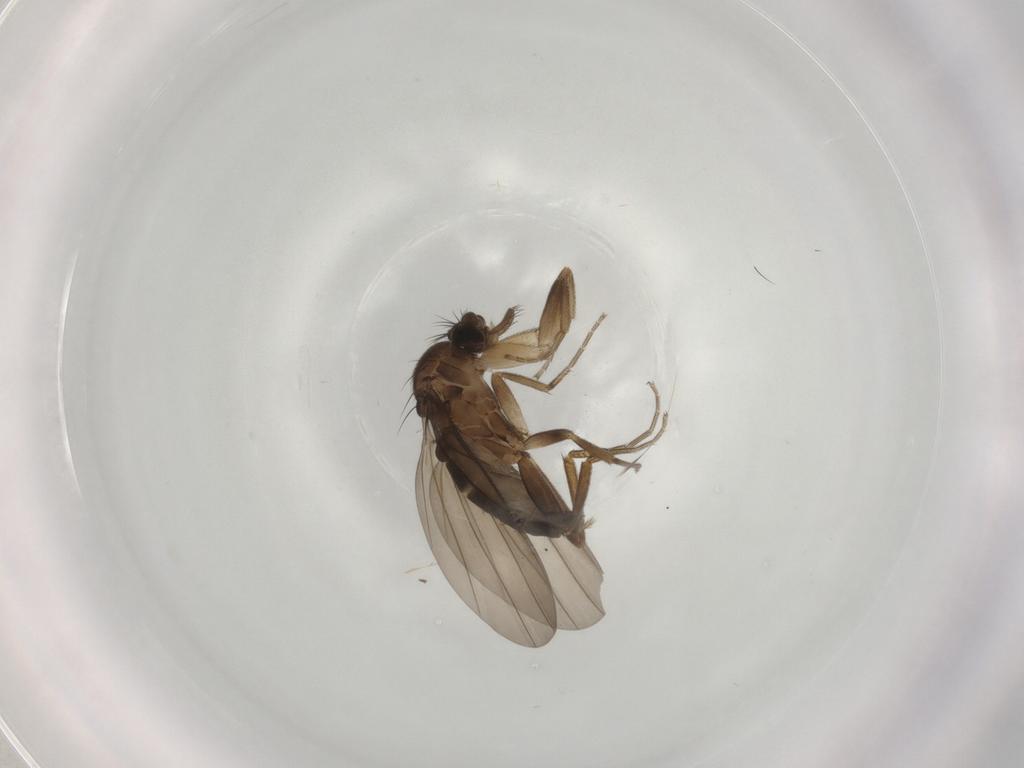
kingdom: Animalia
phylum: Arthropoda
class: Insecta
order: Diptera
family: Phoridae
